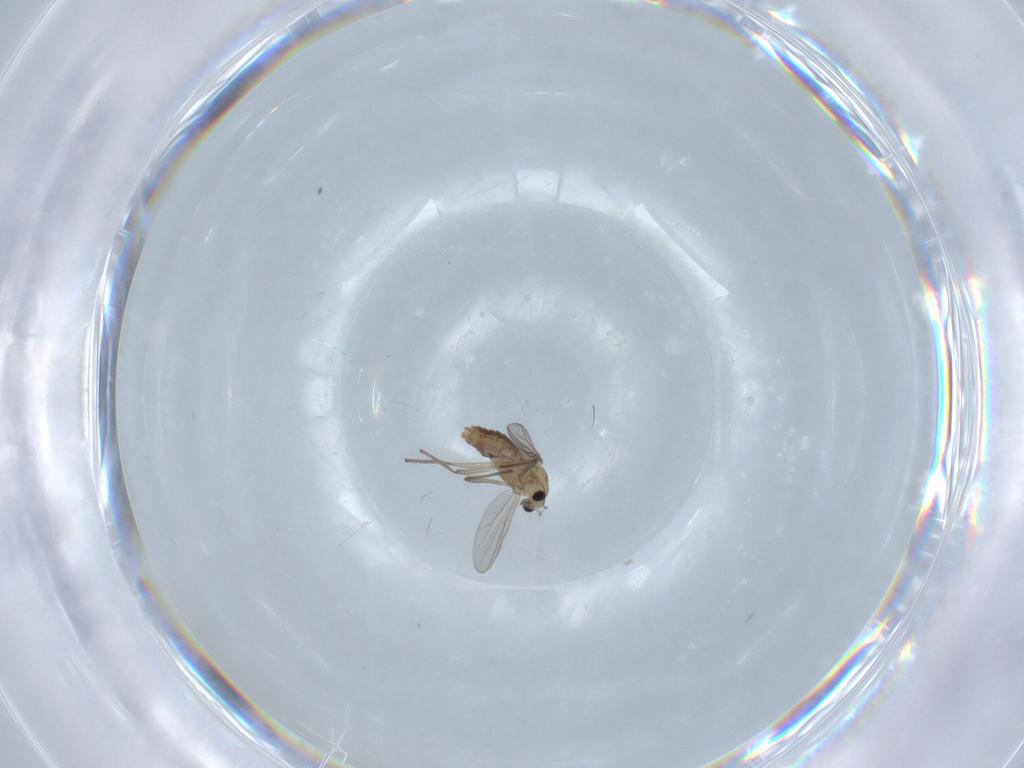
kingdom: Animalia
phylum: Arthropoda
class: Insecta
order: Diptera
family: Chironomidae
